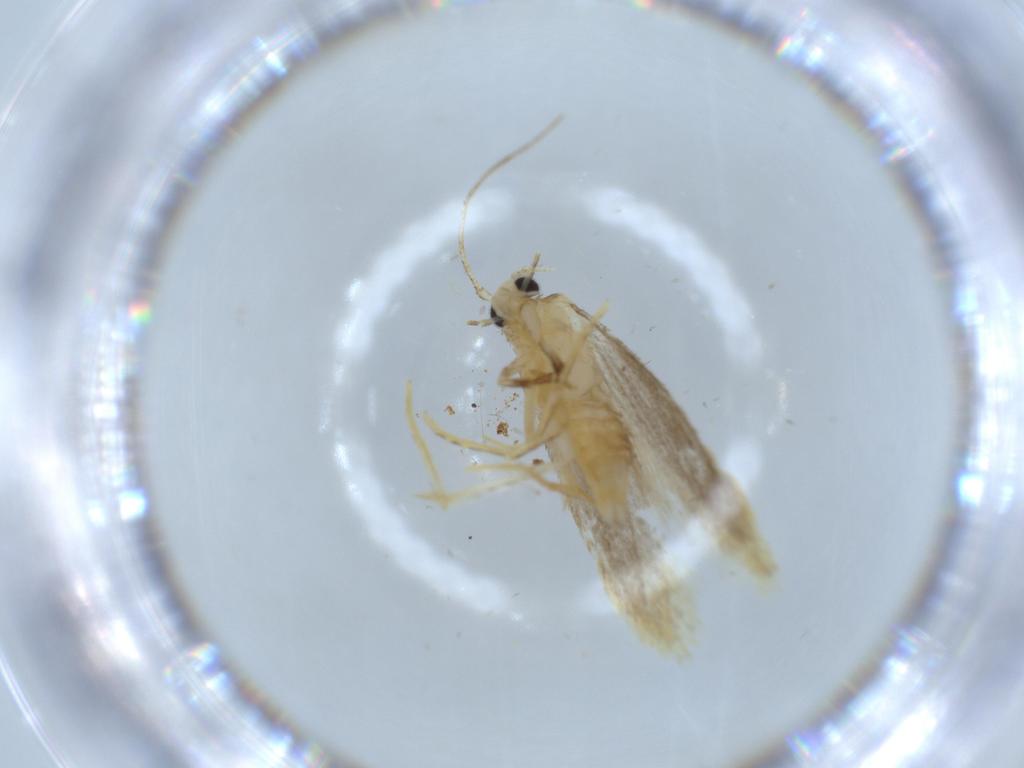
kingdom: Animalia
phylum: Arthropoda
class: Insecta
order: Lepidoptera
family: Tineidae
